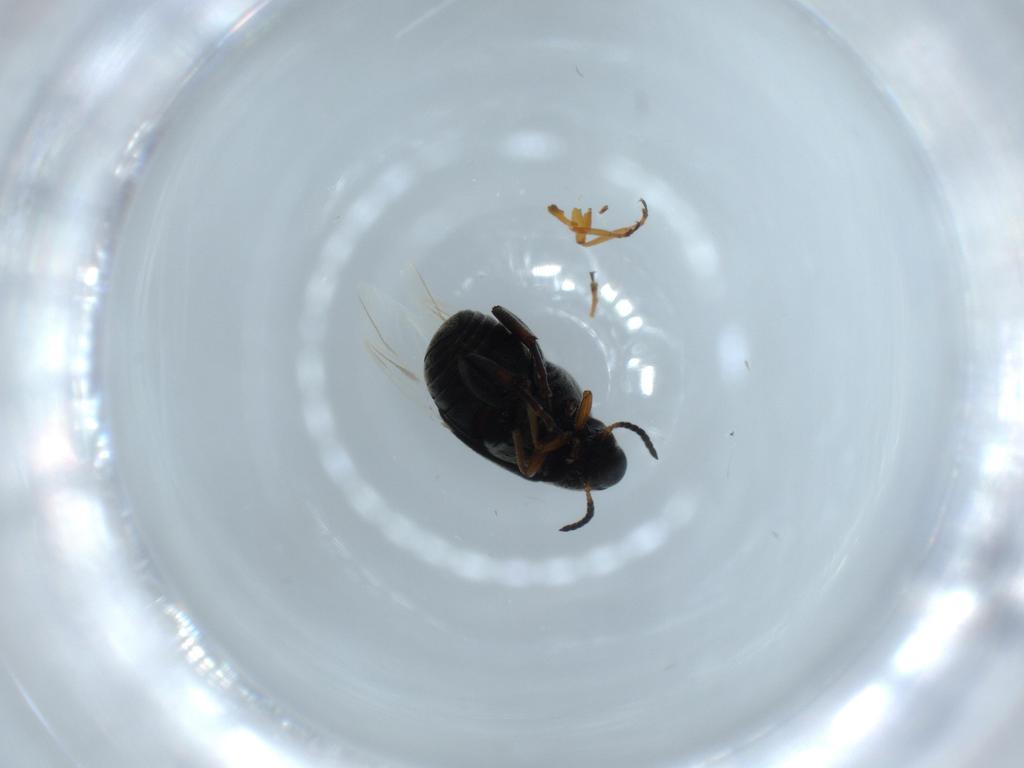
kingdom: Animalia
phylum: Arthropoda
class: Insecta
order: Coleoptera
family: Chrysomelidae
